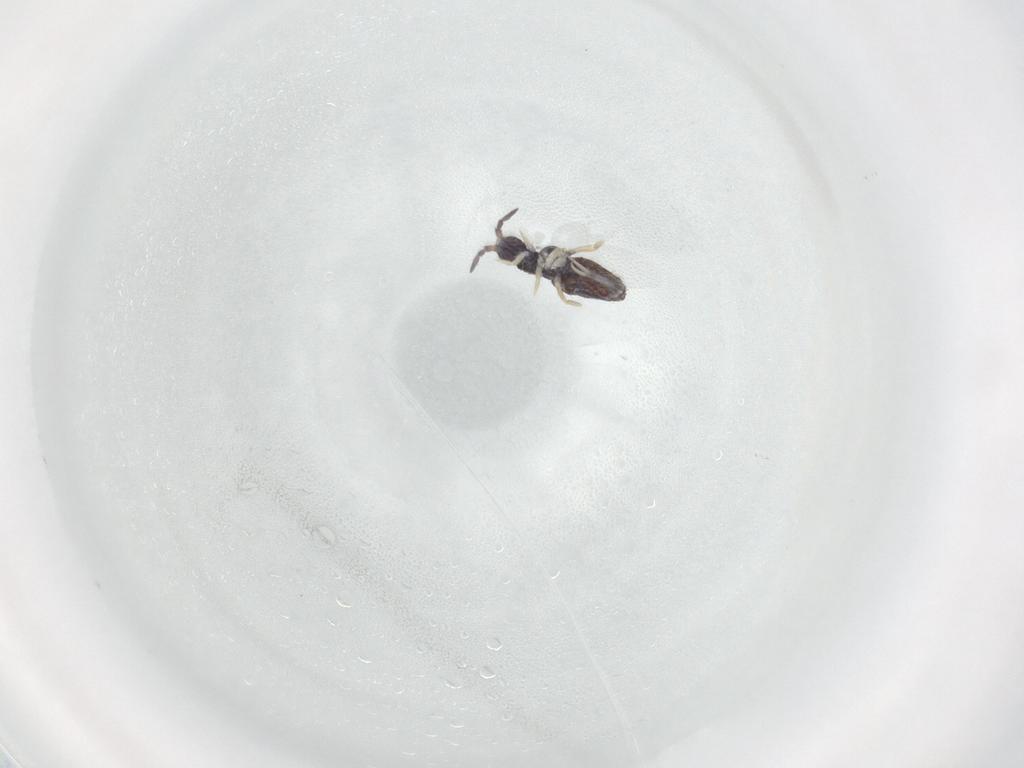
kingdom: Animalia
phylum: Arthropoda
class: Collembola
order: Entomobryomorpha
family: Entomobryidae
